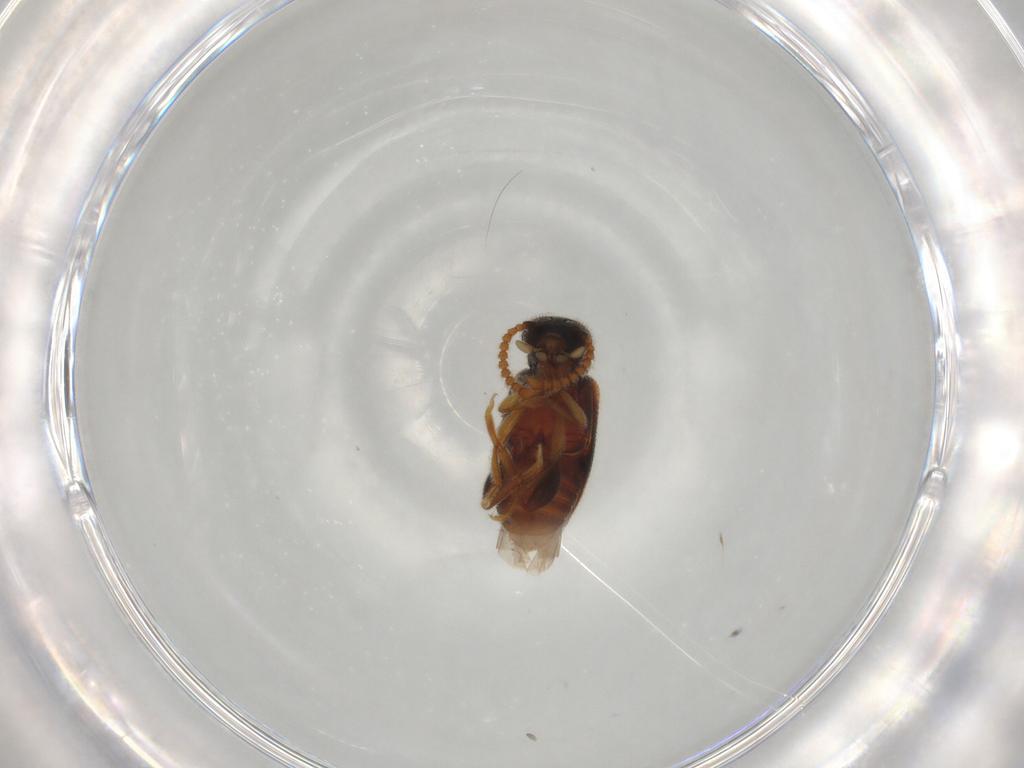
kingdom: Animalia
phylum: Arthropoda
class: Insecta
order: Coleoptera
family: Aderidae
